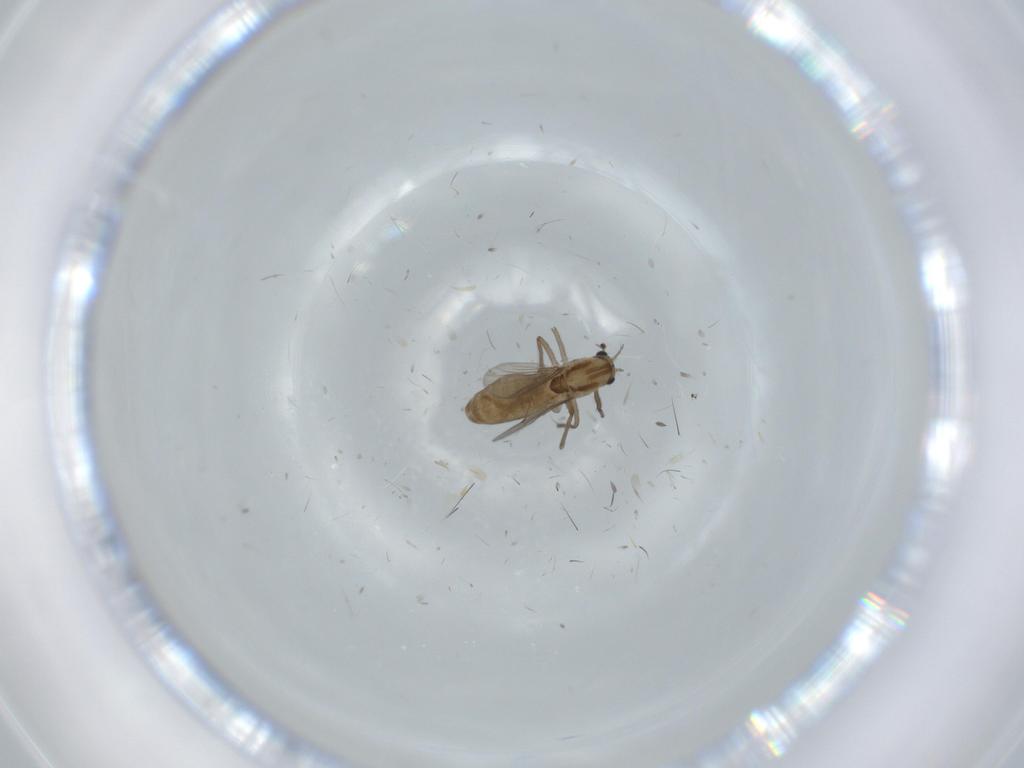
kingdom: Animalia
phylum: Arthropoda
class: Insecta
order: Diptera
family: Chironomidae
